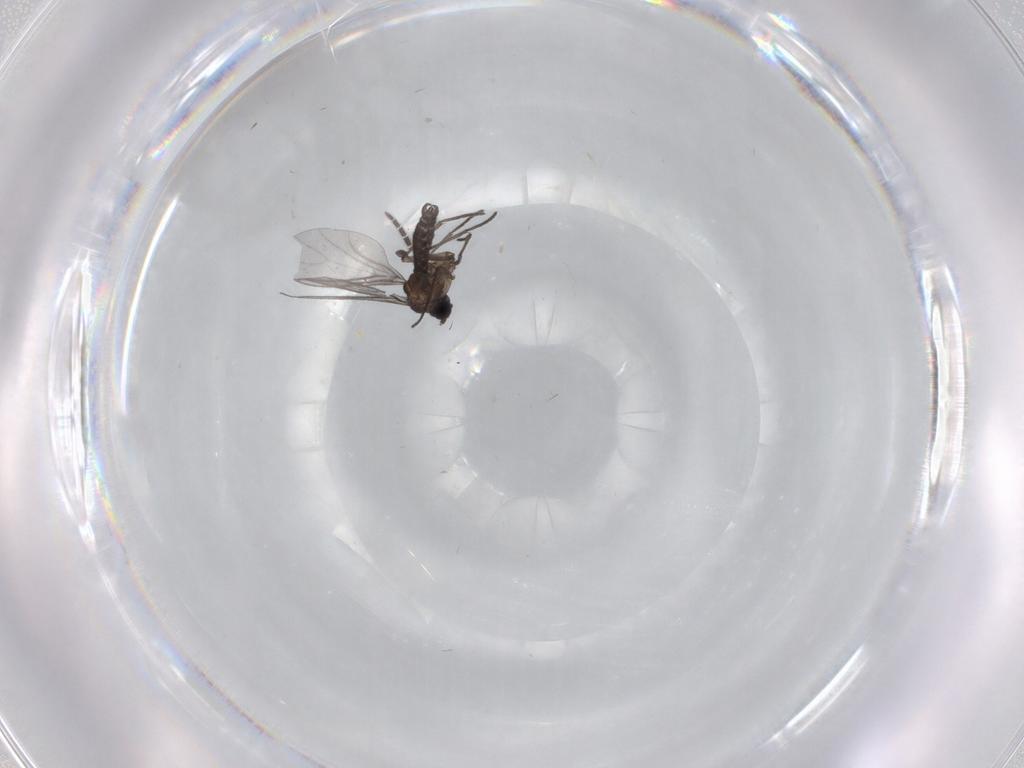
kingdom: Animalia
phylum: Arthropoda
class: Insecta
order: Diptera
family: Sciaridae
